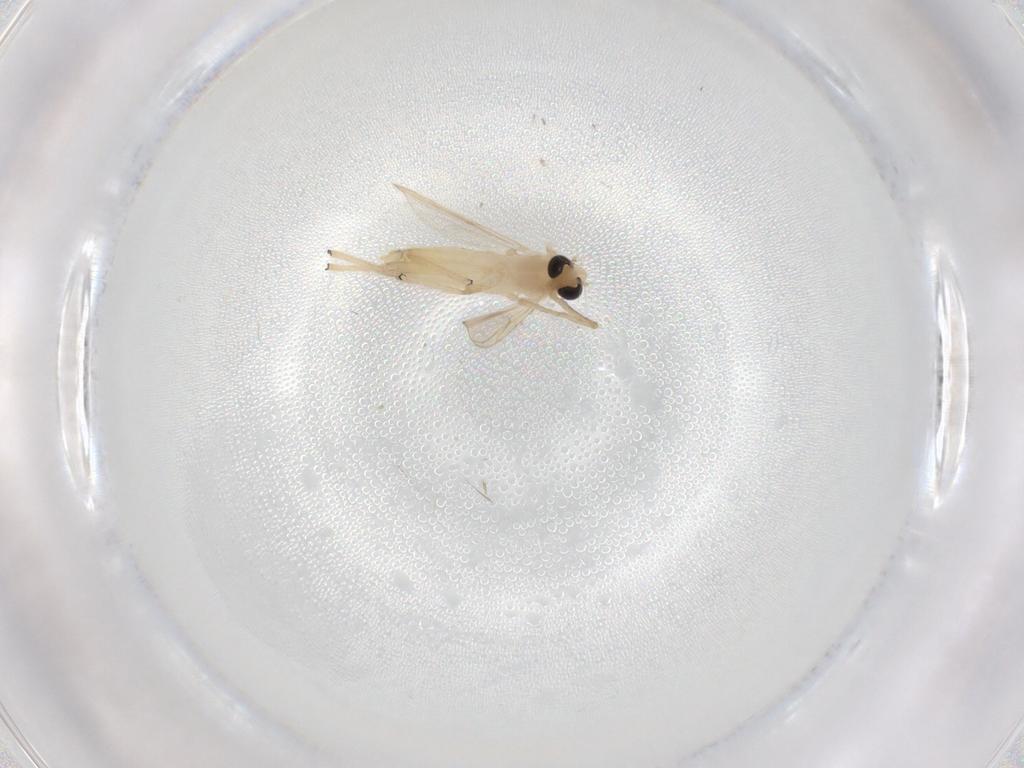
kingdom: Animalia
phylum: Arthropoda
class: Insecta
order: Diptera
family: Chironomidae
